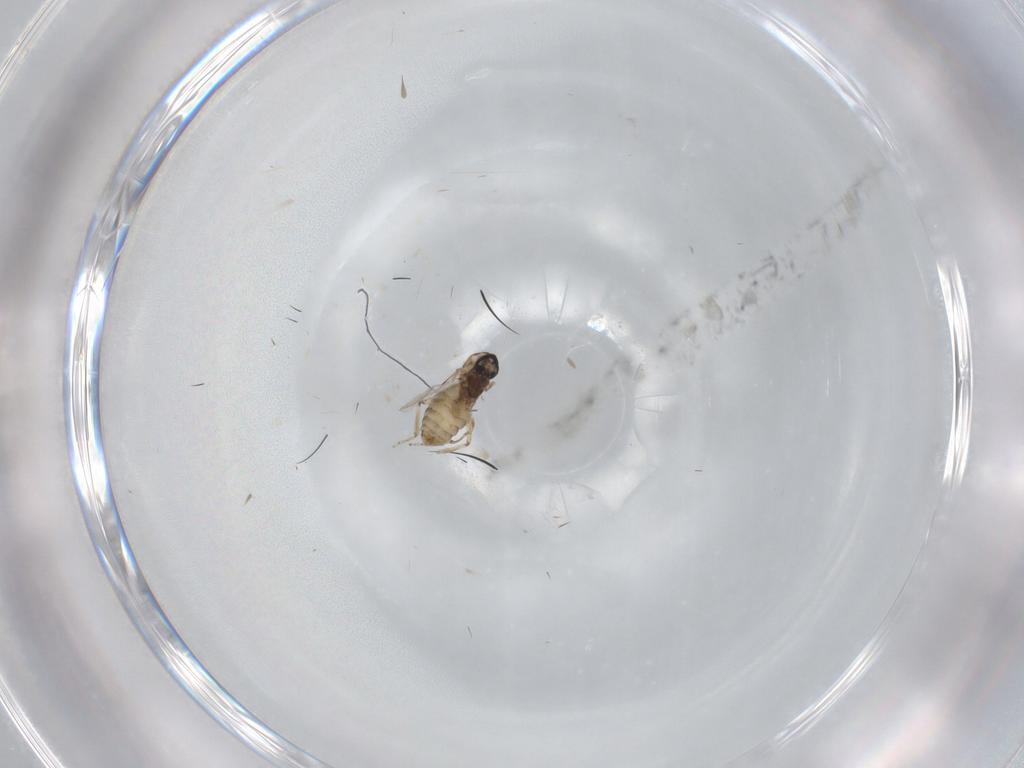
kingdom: Animalia
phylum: Arthropoda
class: Insecta
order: Diptera
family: Ceratopogonidae
